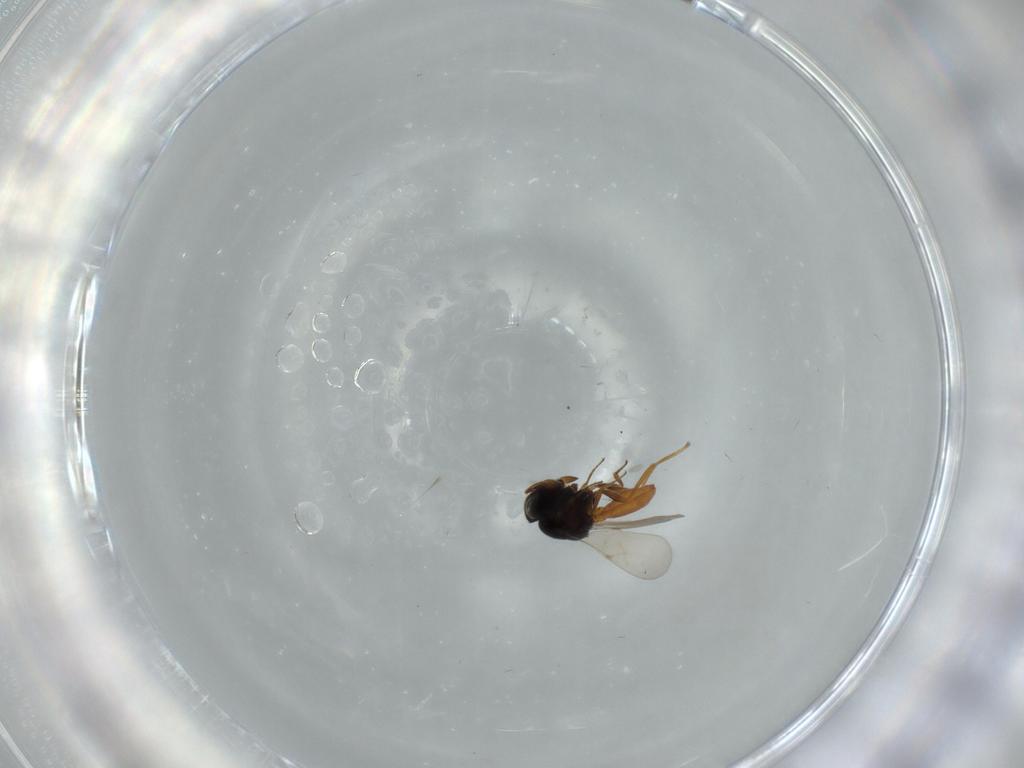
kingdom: Animalia
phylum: Arthropoda
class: Insecta
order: Hymenoptera
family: Scelionidae
